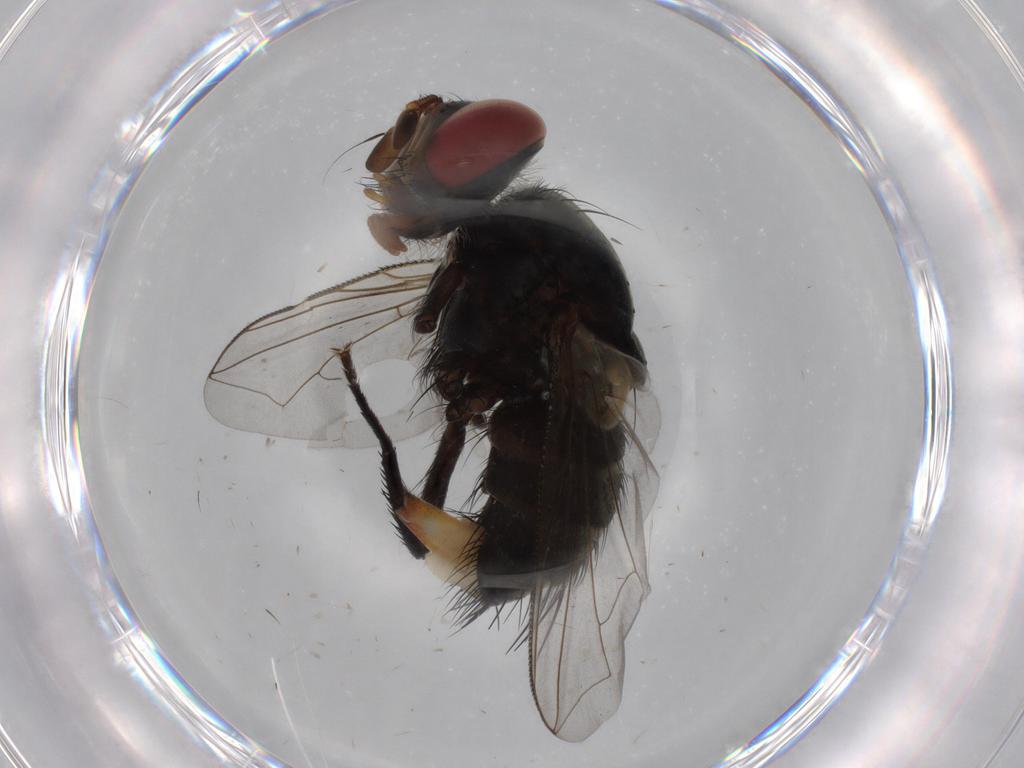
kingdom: Animalia
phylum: Arthropoda
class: Insecta
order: Diptera
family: Tachinidae
